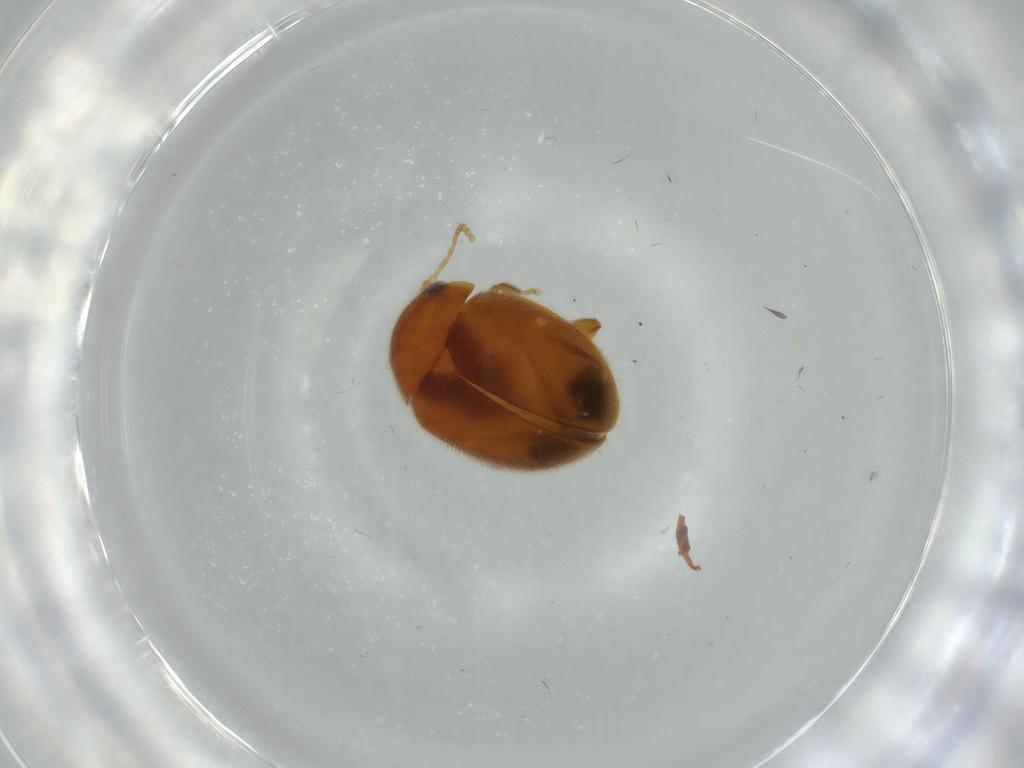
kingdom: Animalia
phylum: Arthropoda
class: Insecta
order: Coleoptera
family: Scirtidae
